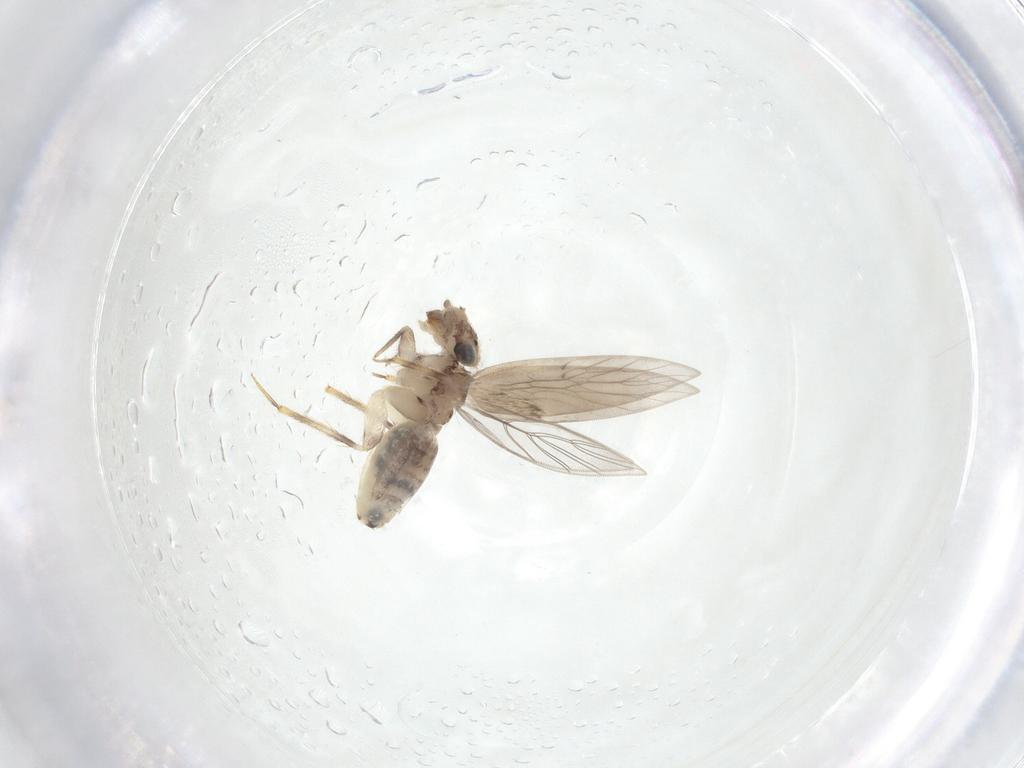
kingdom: Animalia
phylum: Arthropoda
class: Insecta
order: Psocodea
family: Lepidopsocidae
